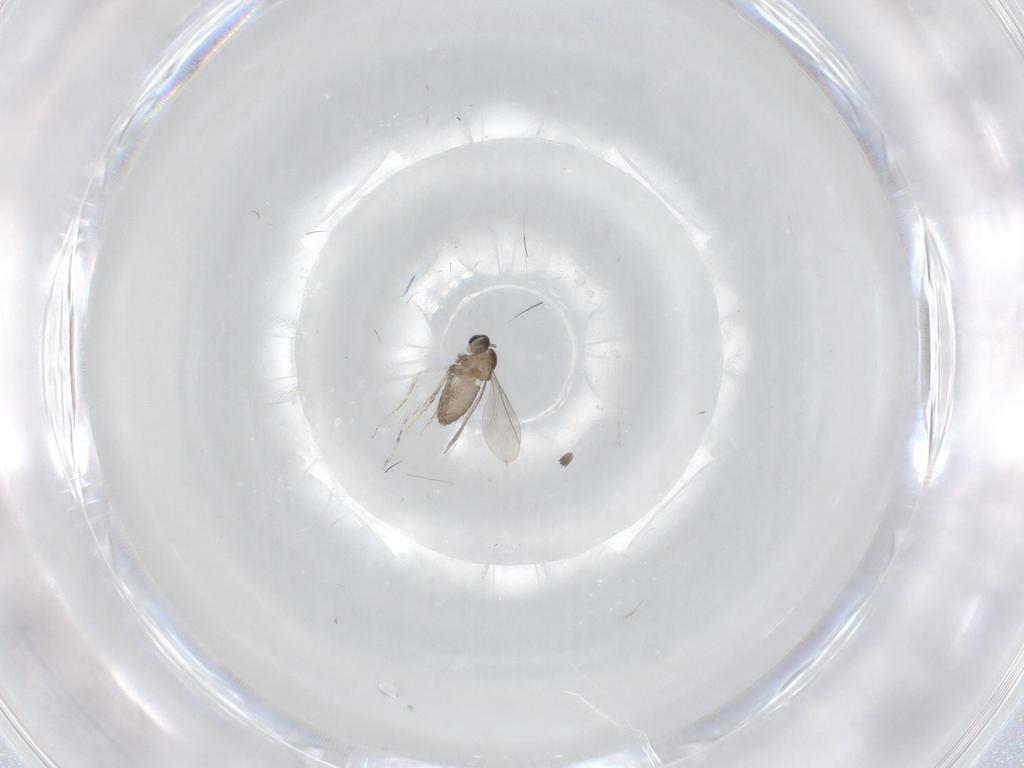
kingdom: Animalia
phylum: Arthropoda
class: Insecta
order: Diptera
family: Cecidomyiidae
